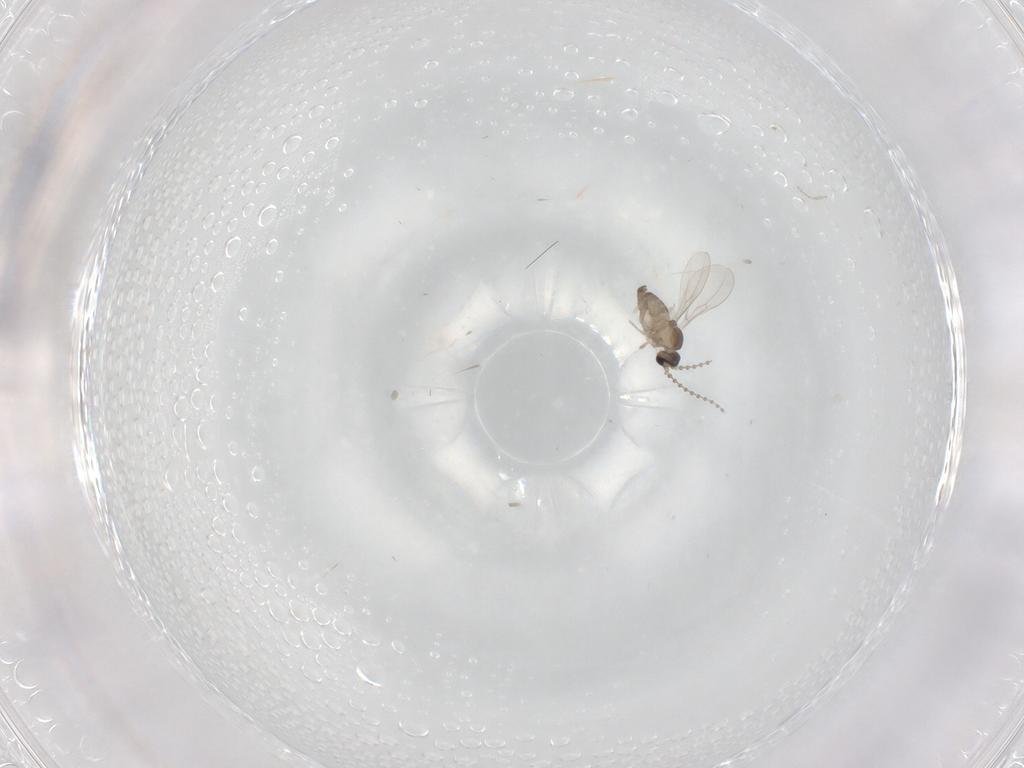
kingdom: Animalia
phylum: Arthropoda
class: Insecta
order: Diptera
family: Cecidomyiidae
